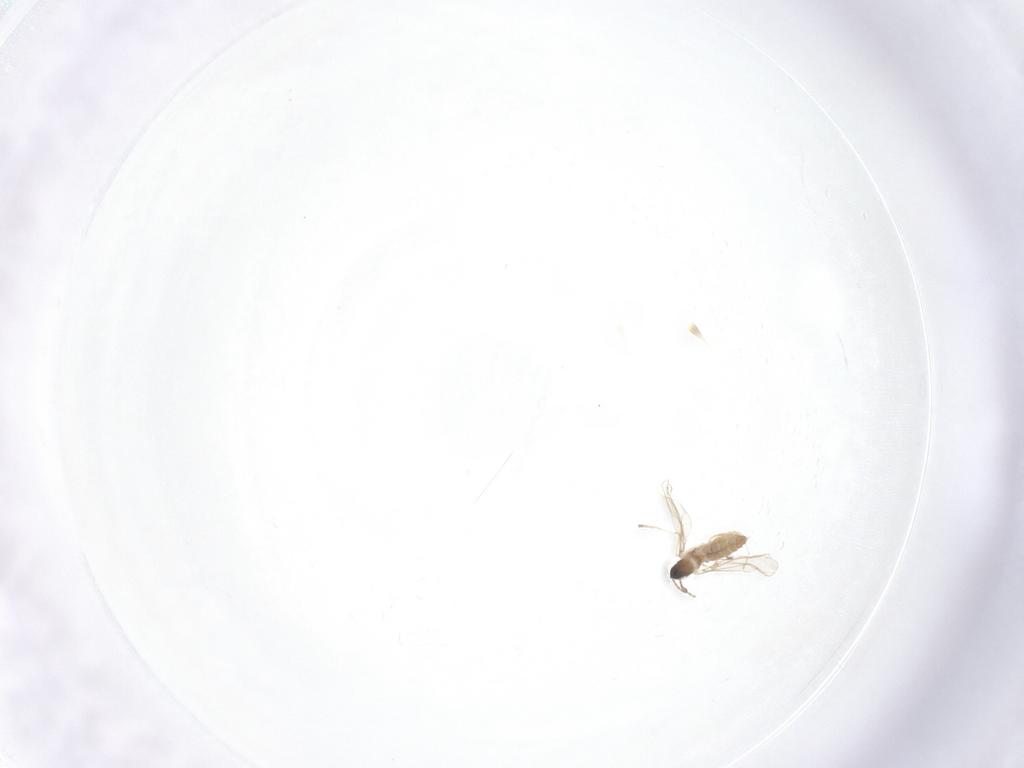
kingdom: Animalia
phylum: Arthropoda
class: Insecta
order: Diptera
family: Cecidomyiidae
